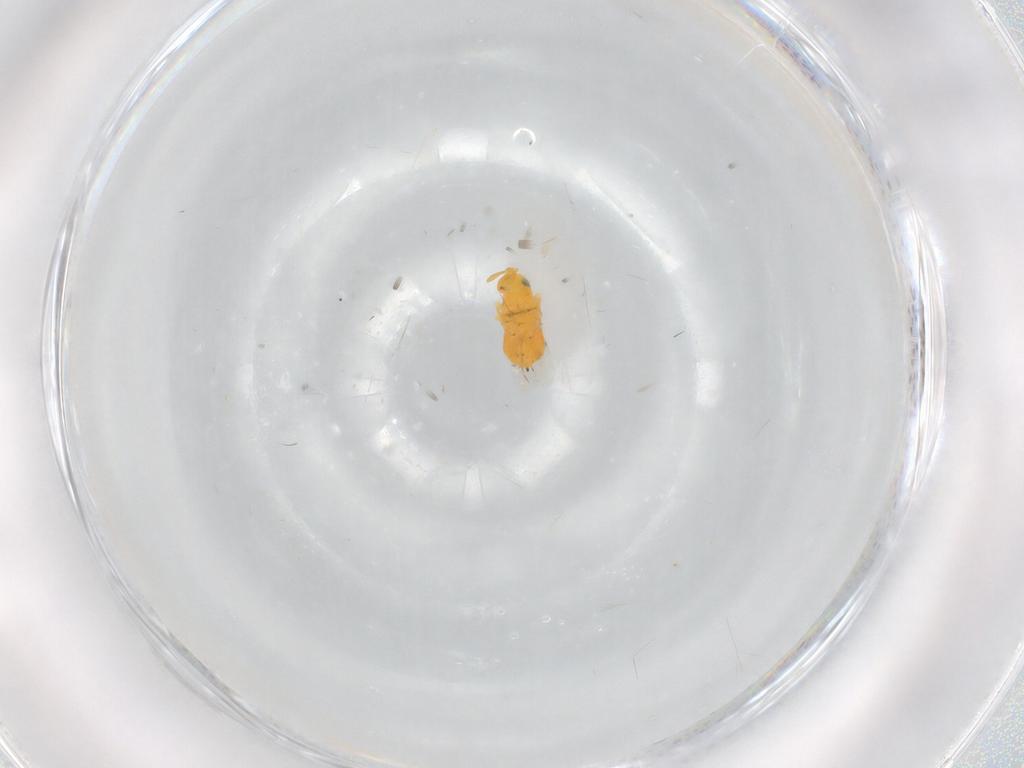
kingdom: Animalia
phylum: Arthropoda
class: Insecta
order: Hymenoptera
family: Encyrtidae
